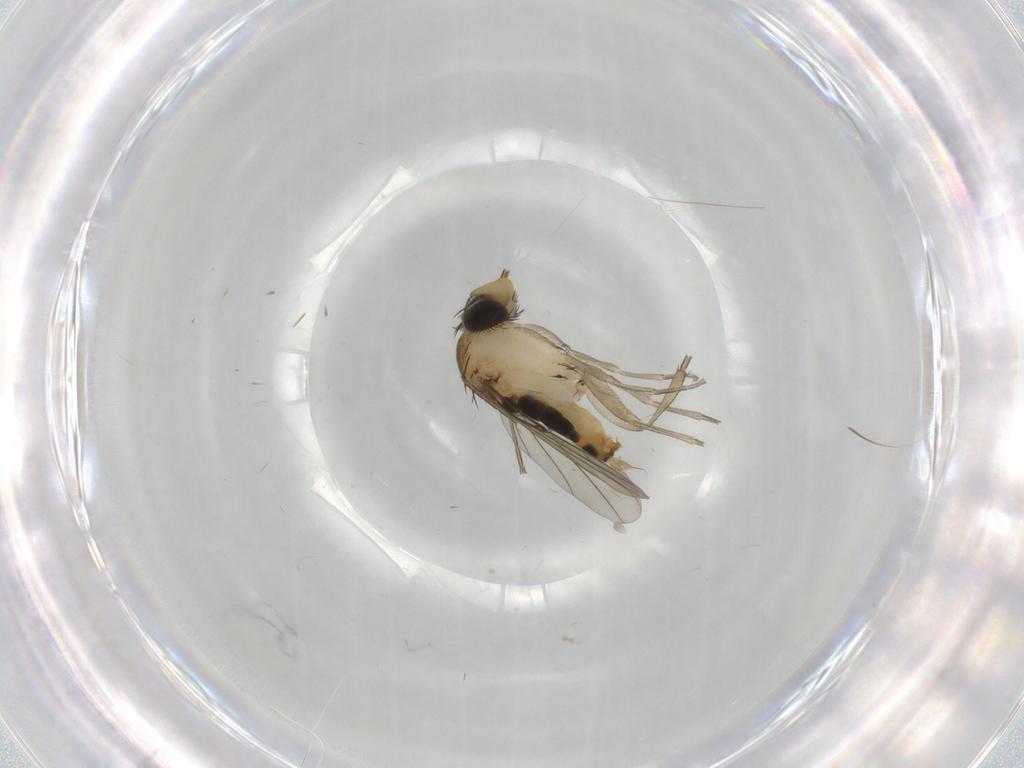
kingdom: Animalia
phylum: Arthropoda
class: Insecta
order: Diptera
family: Phoridae
